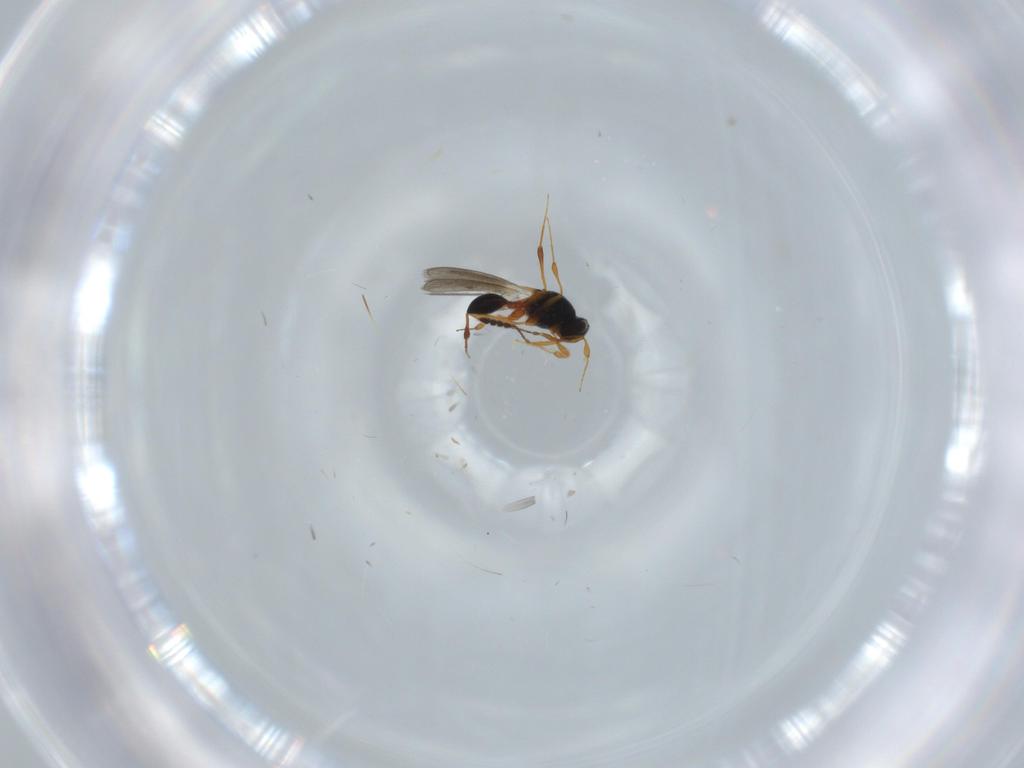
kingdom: Animalia
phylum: Arthropoda
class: Insecta
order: Hymenoptera
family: Platygastridae
